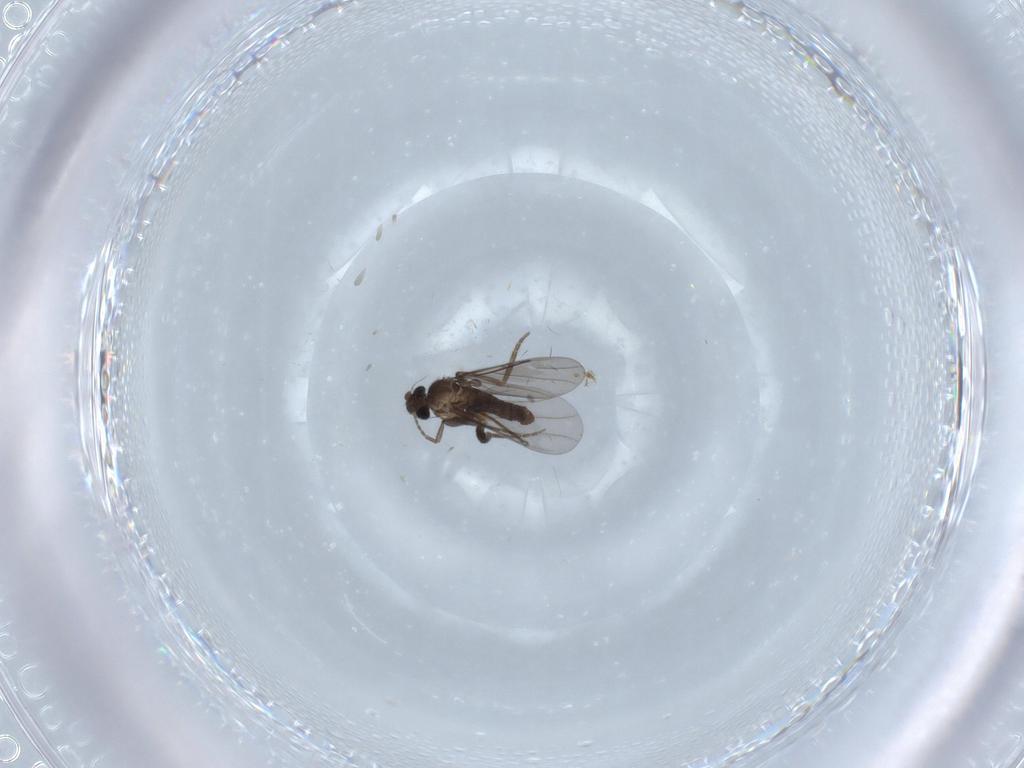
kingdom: Animalia
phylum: Arthropoda
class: Insecta
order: Diptera
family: Phoridae
